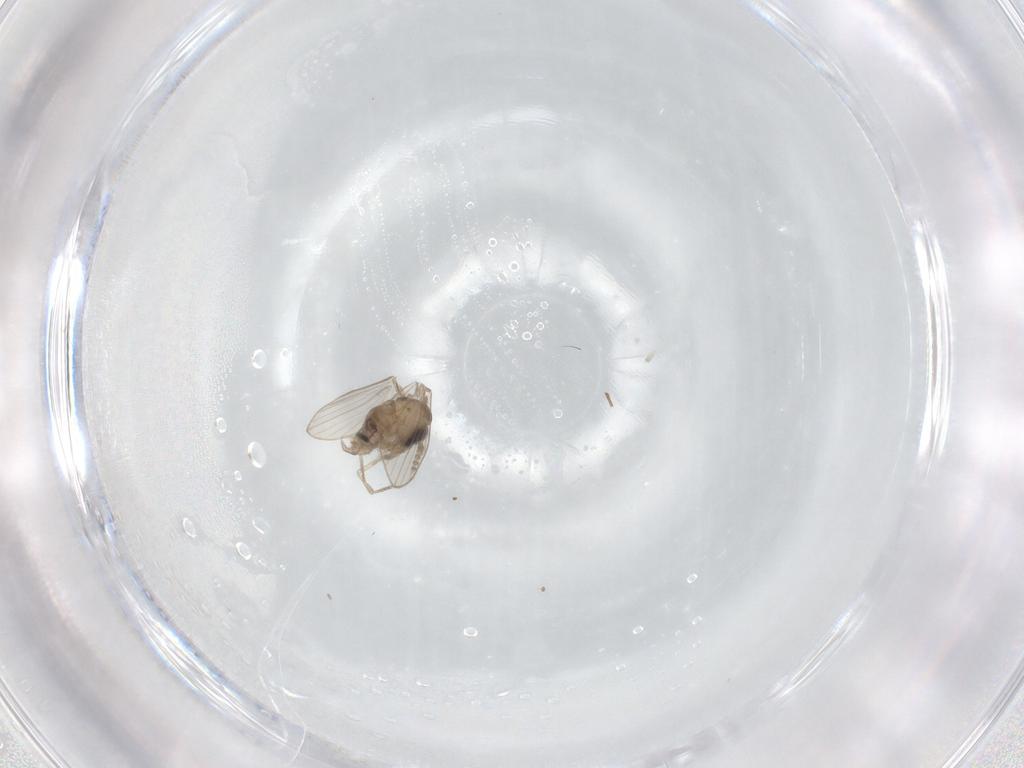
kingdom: Animalia
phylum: Arthropoda
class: Insecta
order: Diptera
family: Psychodidae
